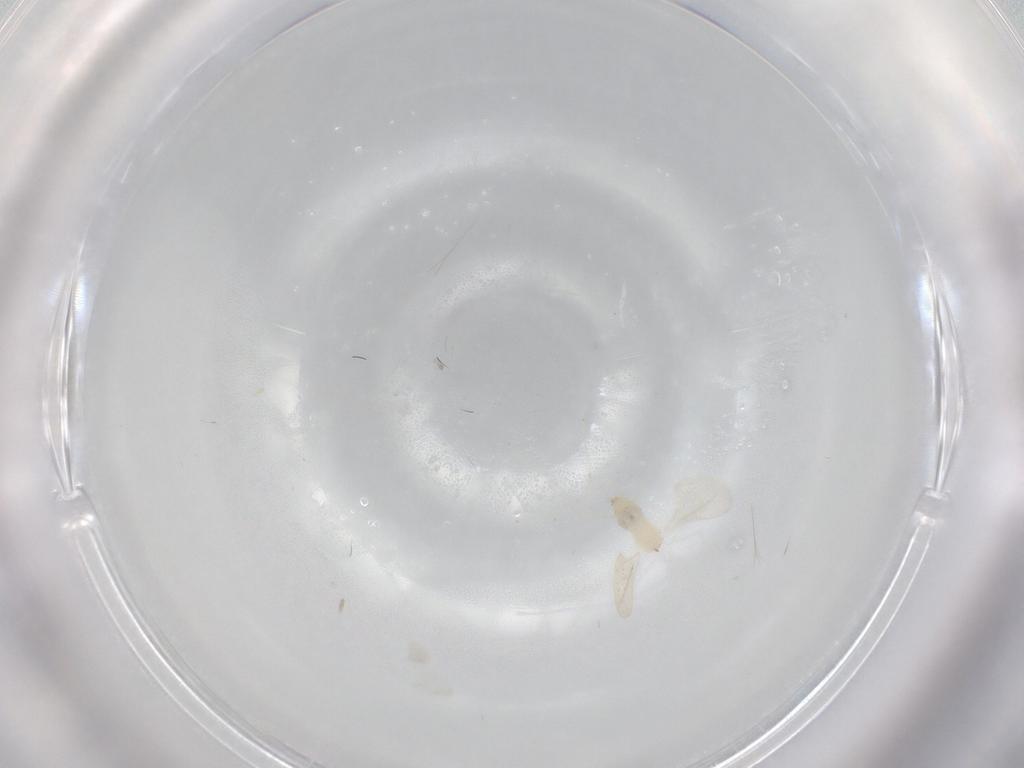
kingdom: Animalia
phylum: Arthropoda
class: Insecta
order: Diptera
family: Cecidomyiidae
